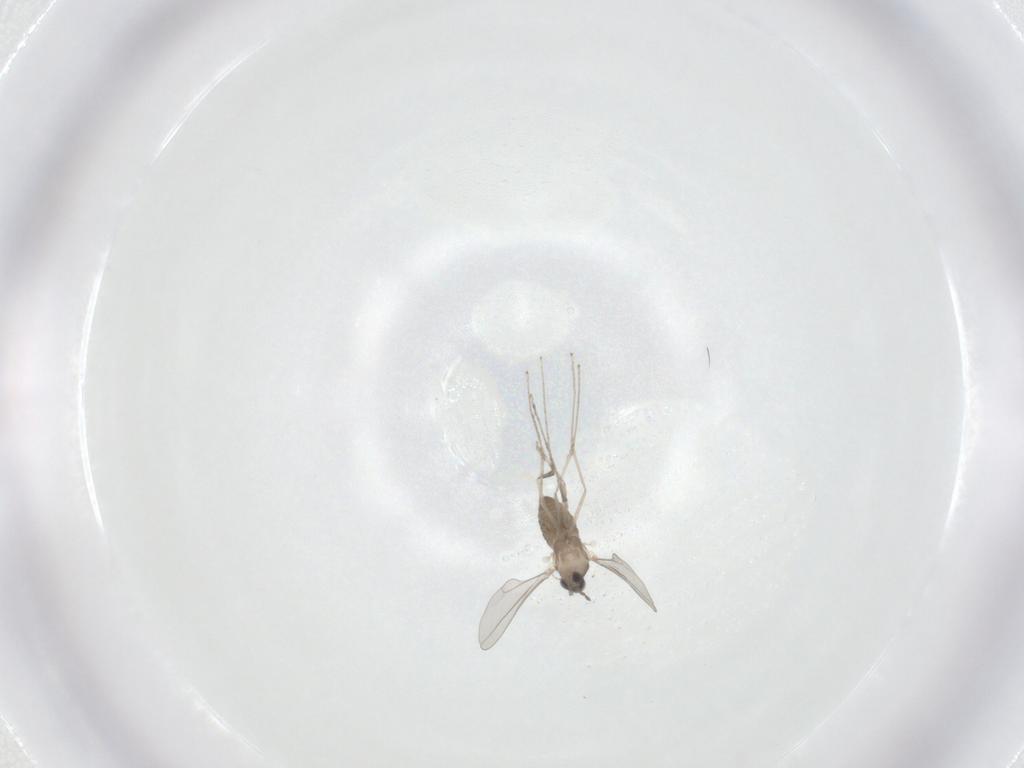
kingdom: Animalia
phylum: Arthropoda
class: Insecta
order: Diptera
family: Cecidomyiidae
